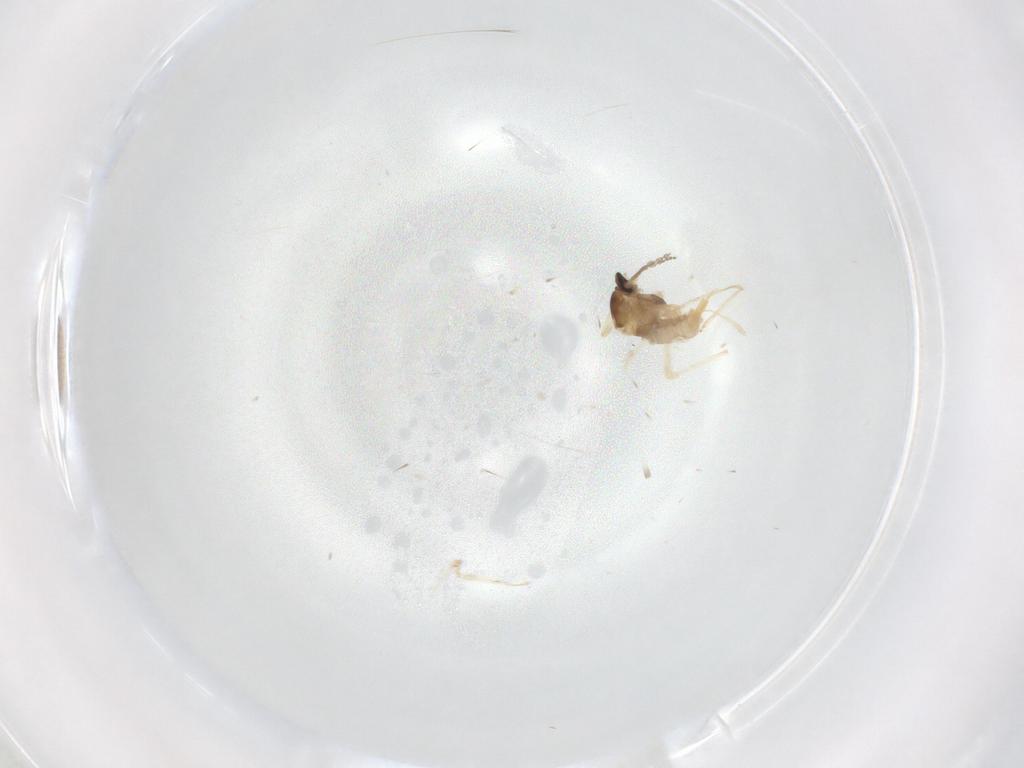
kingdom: Animalia
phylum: Arthropoda
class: Insecta
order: Diptera
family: Cecidomyiidae
